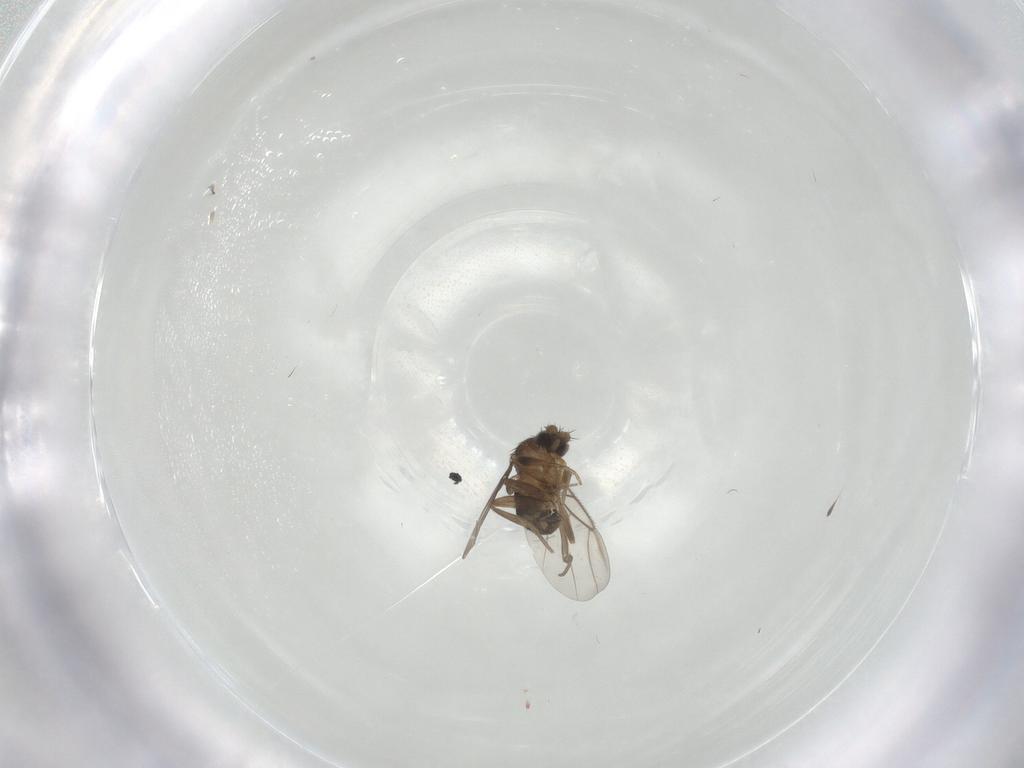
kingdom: Animalia
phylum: Arthropoda
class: Insecta
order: Diptera
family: Phoridae
